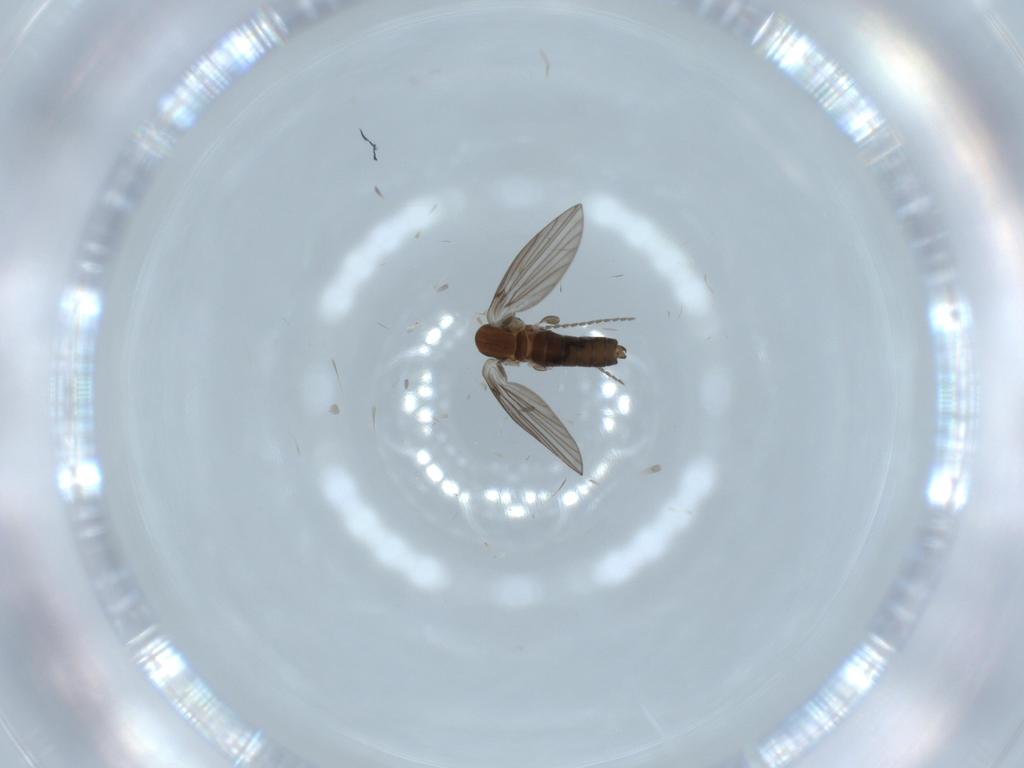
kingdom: Animalia
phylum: Arthropoda
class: Insecta
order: Diptera
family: Psychodidae
